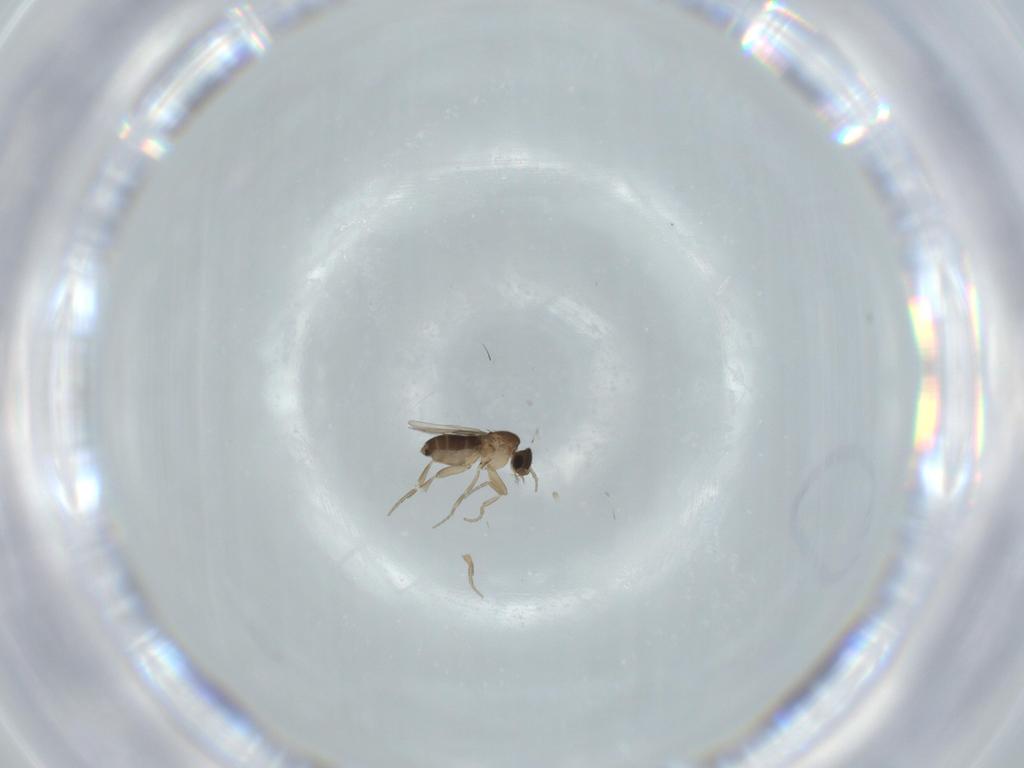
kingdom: Animalia
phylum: Arthropoda
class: Insecta
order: Diptera
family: Phoridae
